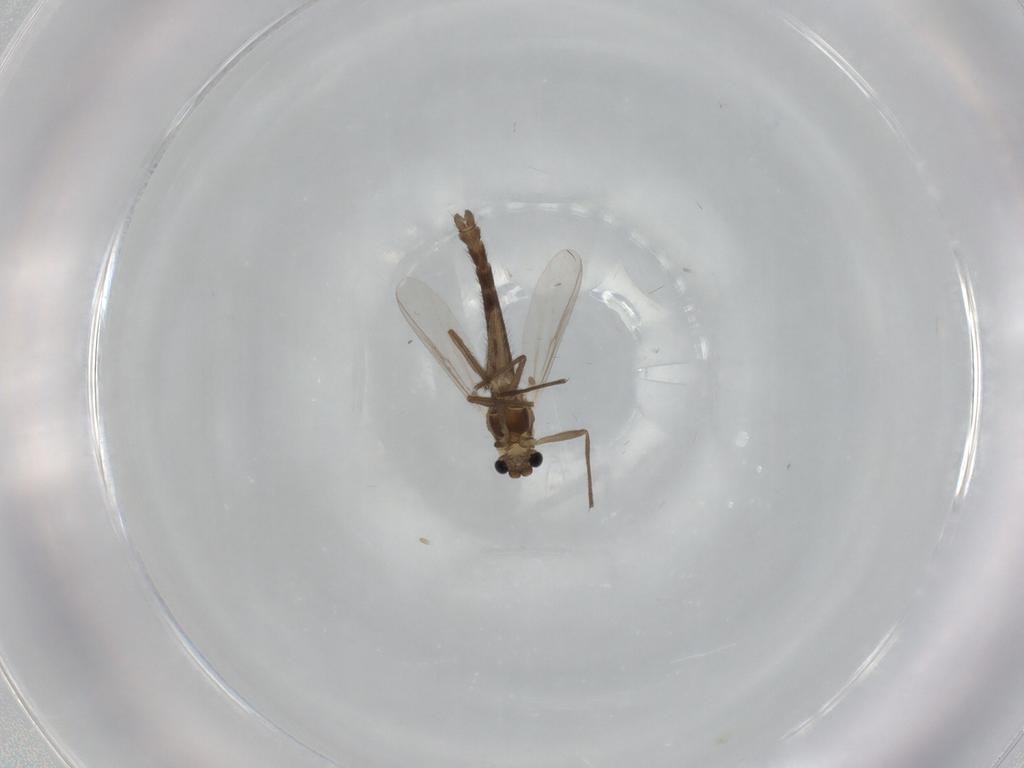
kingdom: Animalia
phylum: Arthropoda
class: Insecta
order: Diptera
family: Chironomidae
